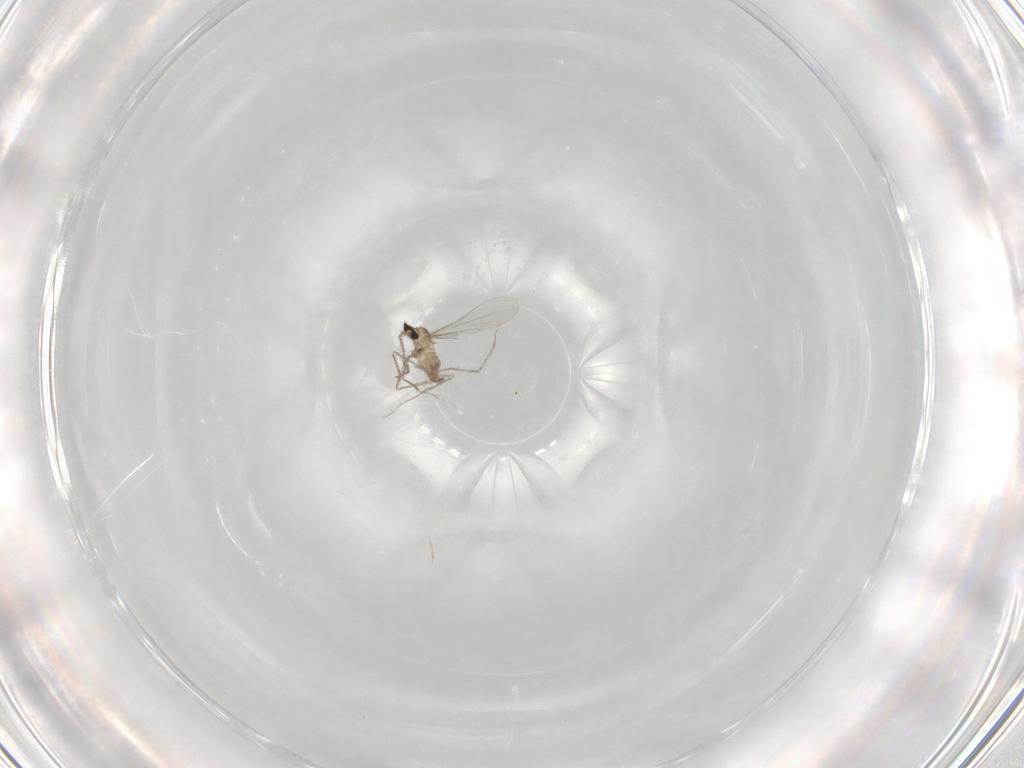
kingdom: Animalia
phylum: Arthropoda
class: Insecta
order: Diptera
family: Cecidomyiidae
